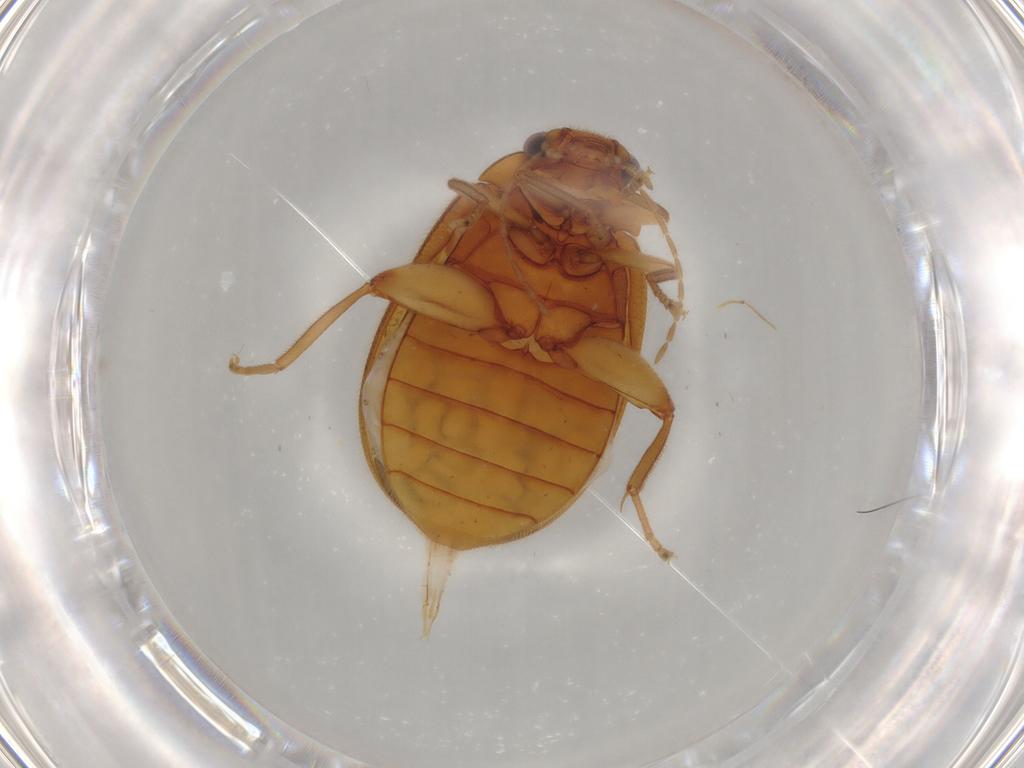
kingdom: Animalia
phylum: Arthropoda
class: Insecta
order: Coleoptera
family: Scirtidae
